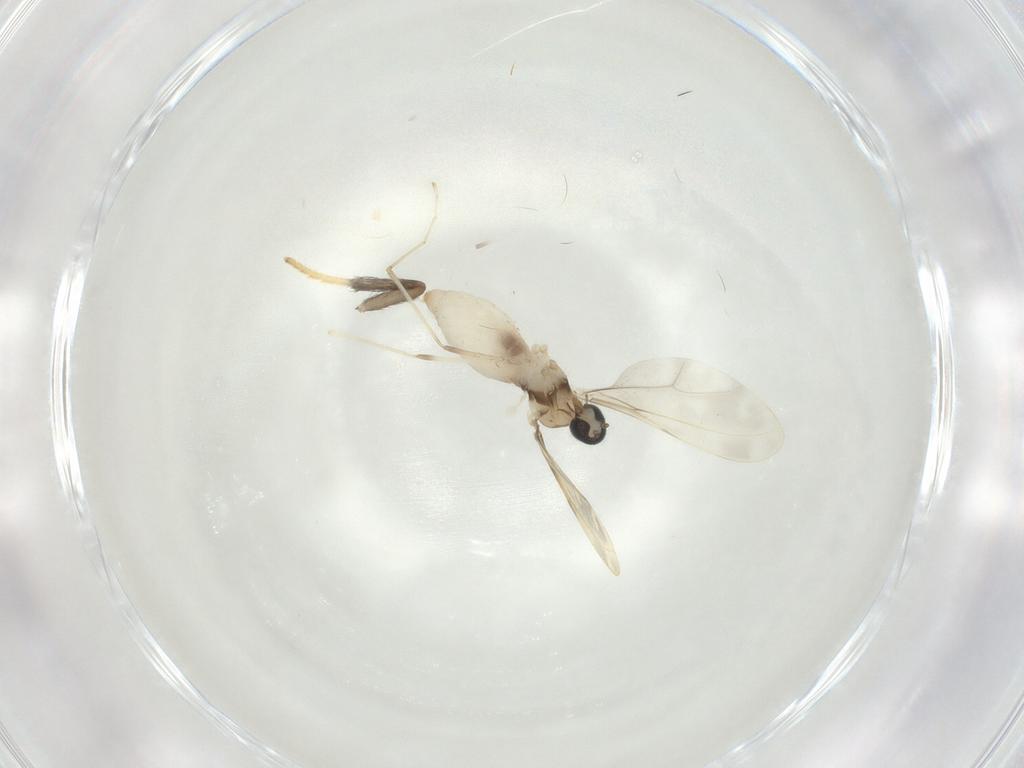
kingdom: Animalia
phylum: Arthropoda
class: Insecta
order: Diptera
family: Cecidomyiidae
